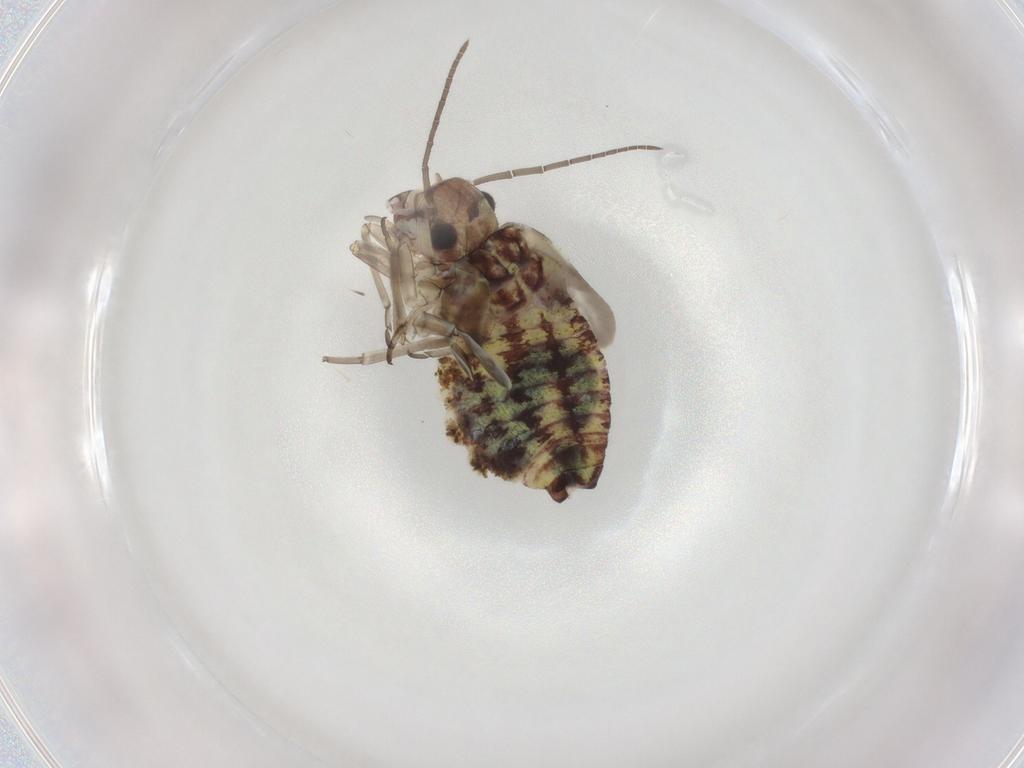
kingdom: Animalia
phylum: Arthropoda
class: Insecta
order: Hemiptera
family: Cicadellidae
